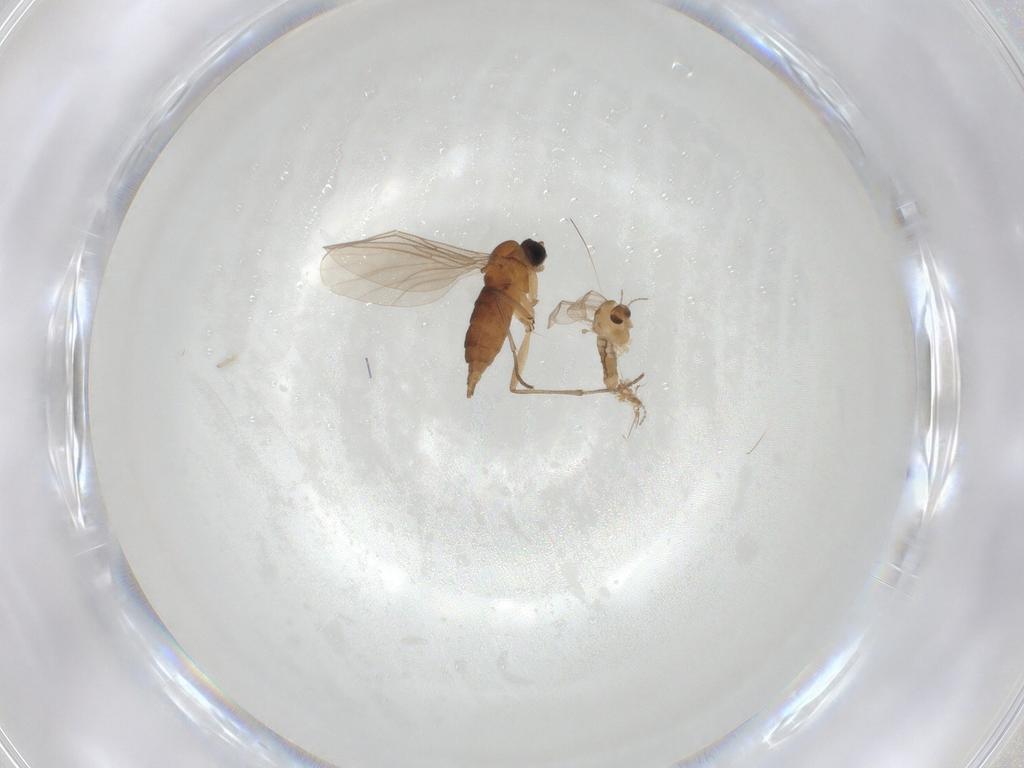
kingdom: Animalia
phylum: Arthropoda
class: Insecta
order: Diptera
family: Sciaridae
